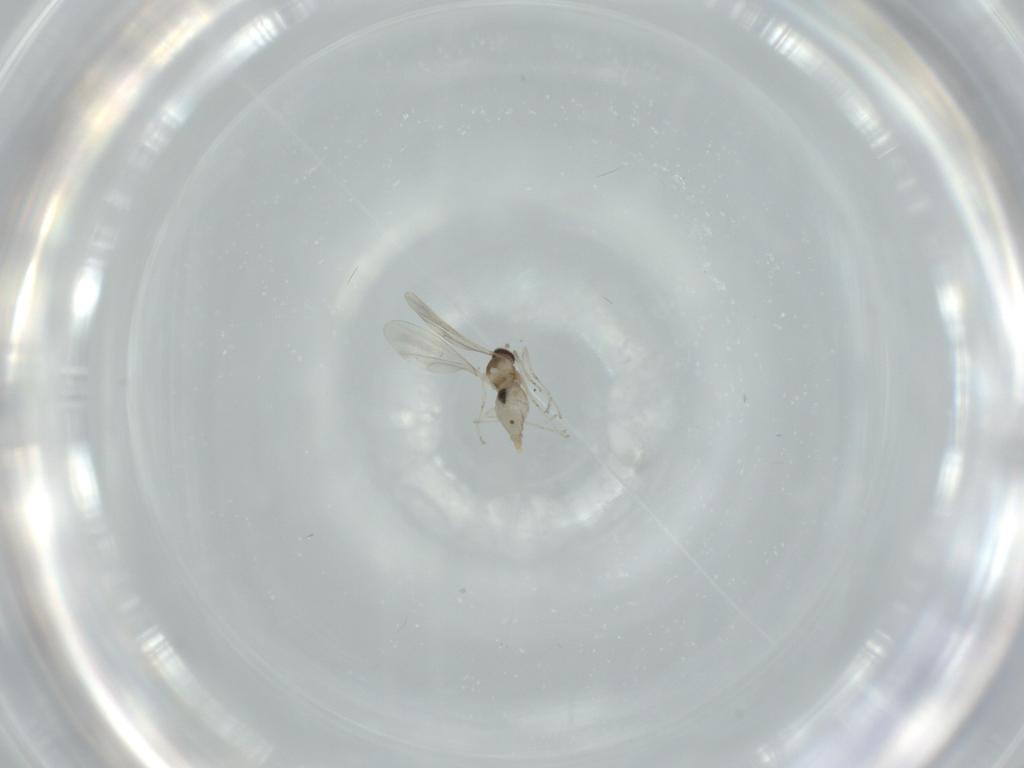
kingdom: Animalia
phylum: Arthropoda
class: Insecta
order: Diptera
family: Cecidomyiidae
